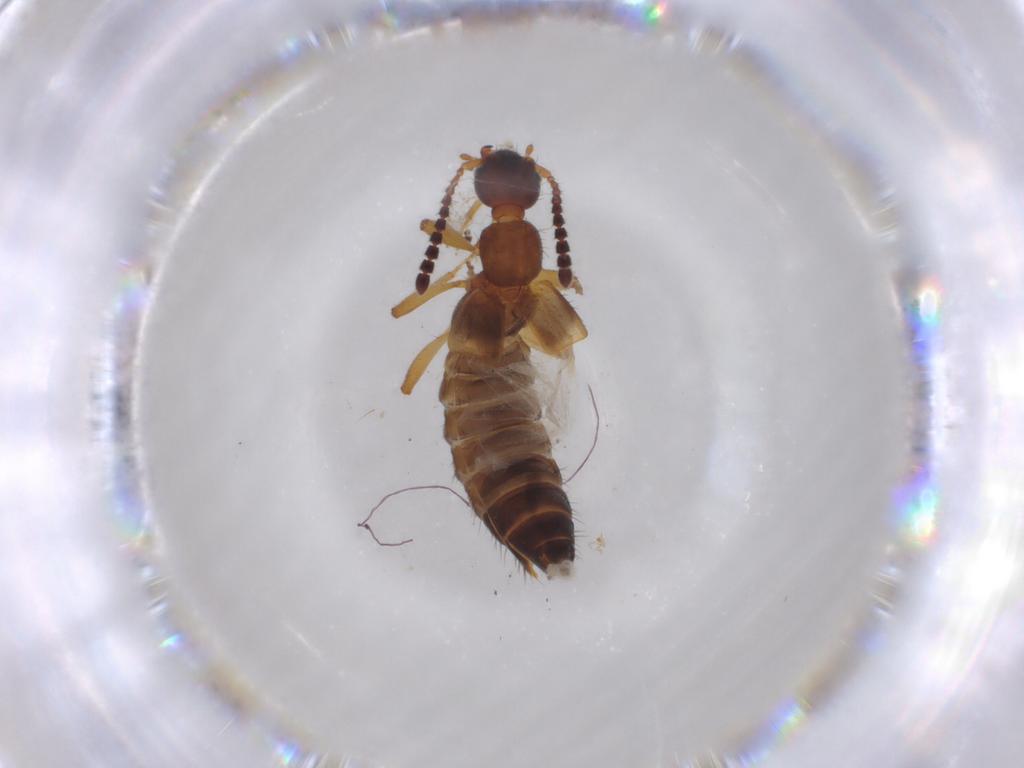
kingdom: Animalia
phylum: Arthropoda
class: Insecta
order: Coleoptera
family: Staphylinidae
